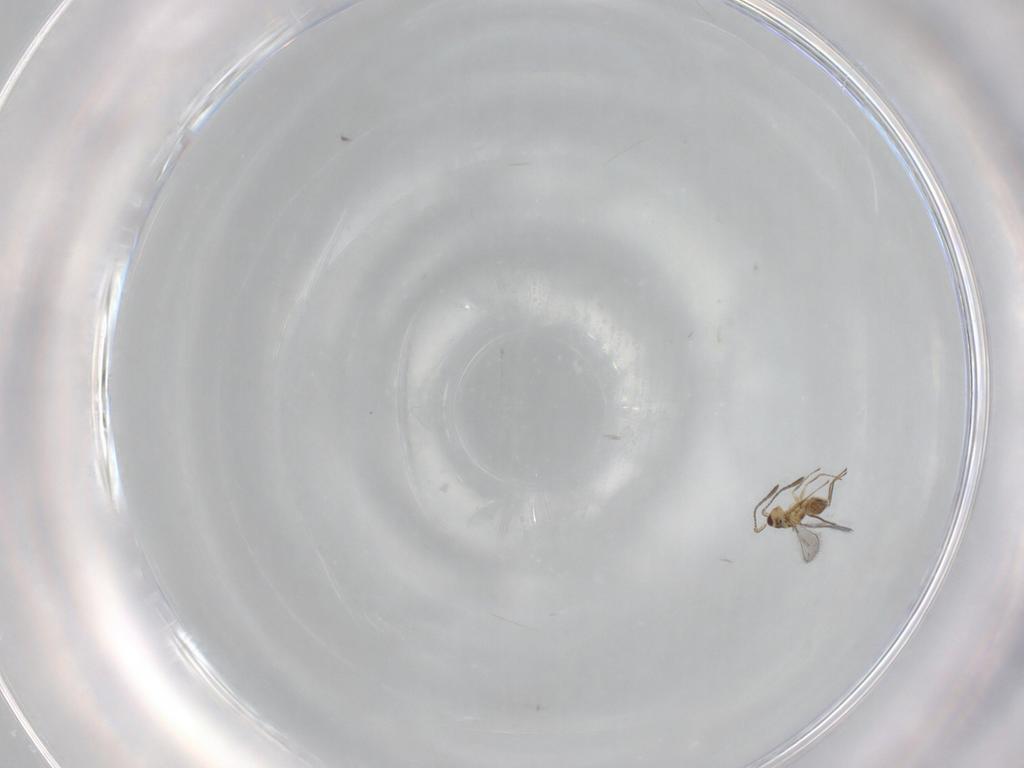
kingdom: Animalia
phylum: Arthropoda
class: Insecta
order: Hymenoptera
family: Mymaridae
